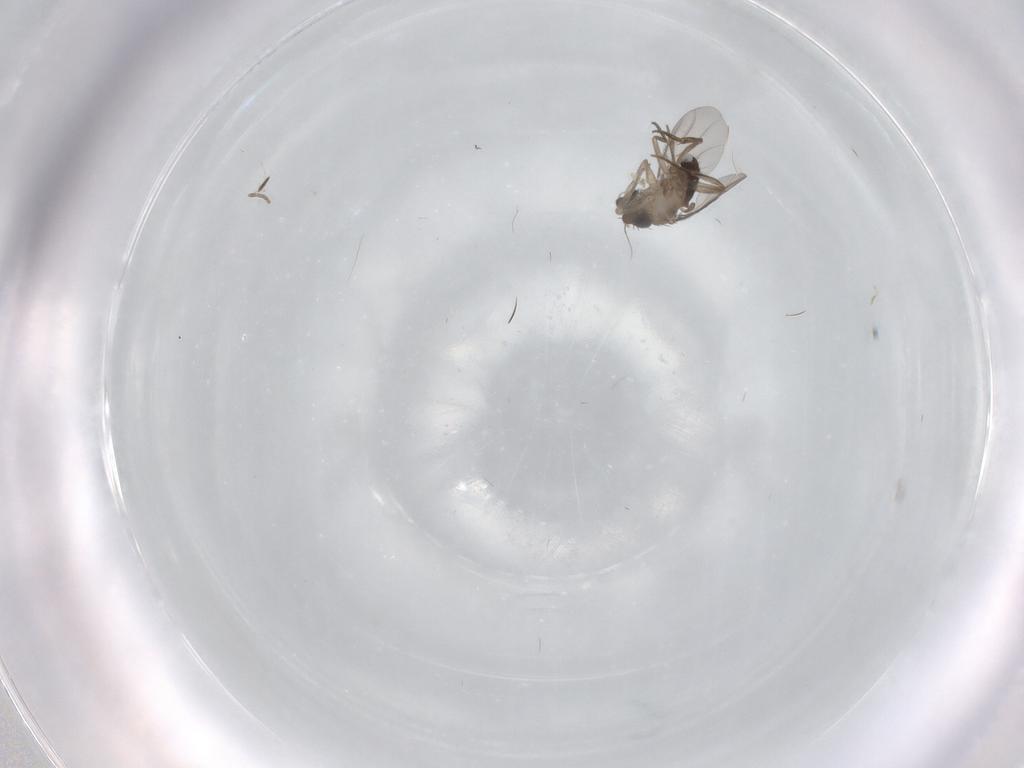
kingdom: Animalia
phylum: Arthropoda
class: Insecta
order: Diptera
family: Phoridae
